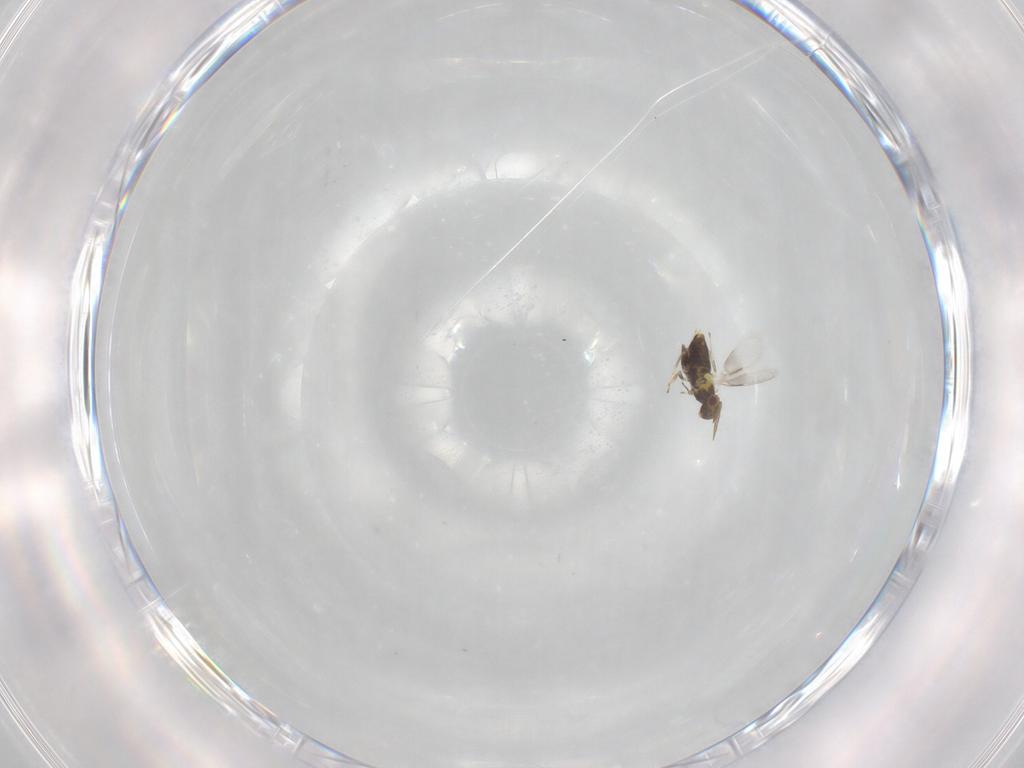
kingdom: Animalia
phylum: Arthropoda
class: Insecta
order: Hymenoptera
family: Aphelinidae
